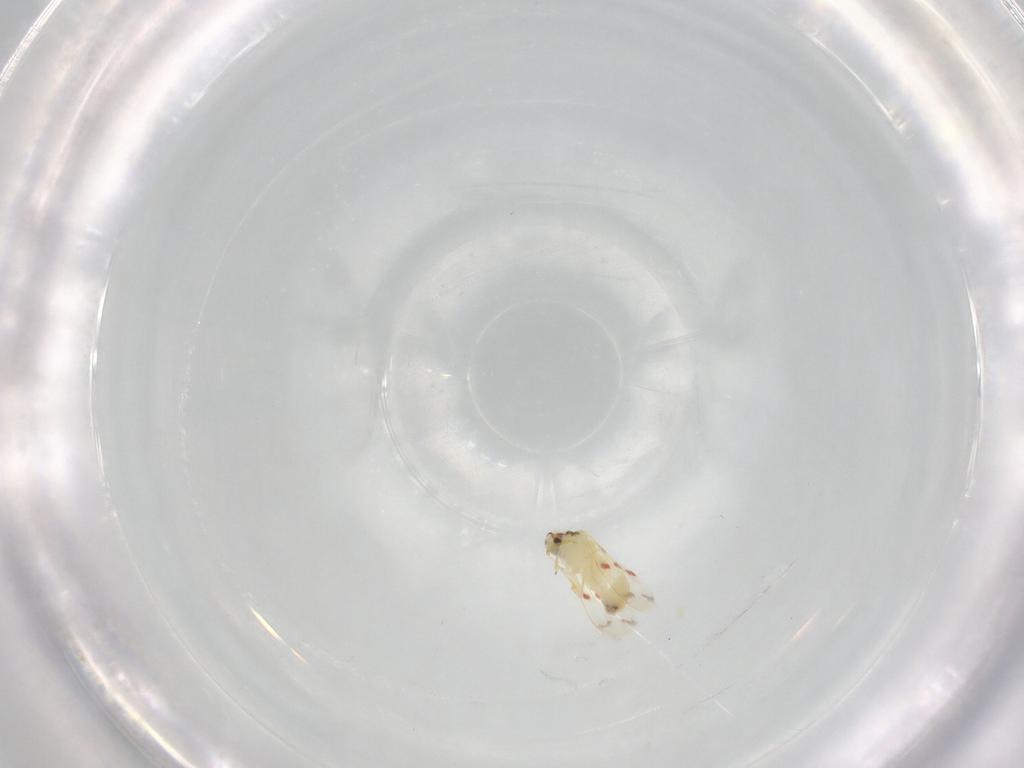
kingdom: Animalia
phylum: Arthropoda
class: Insecta
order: Hemiptera
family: Aleyrodidae
